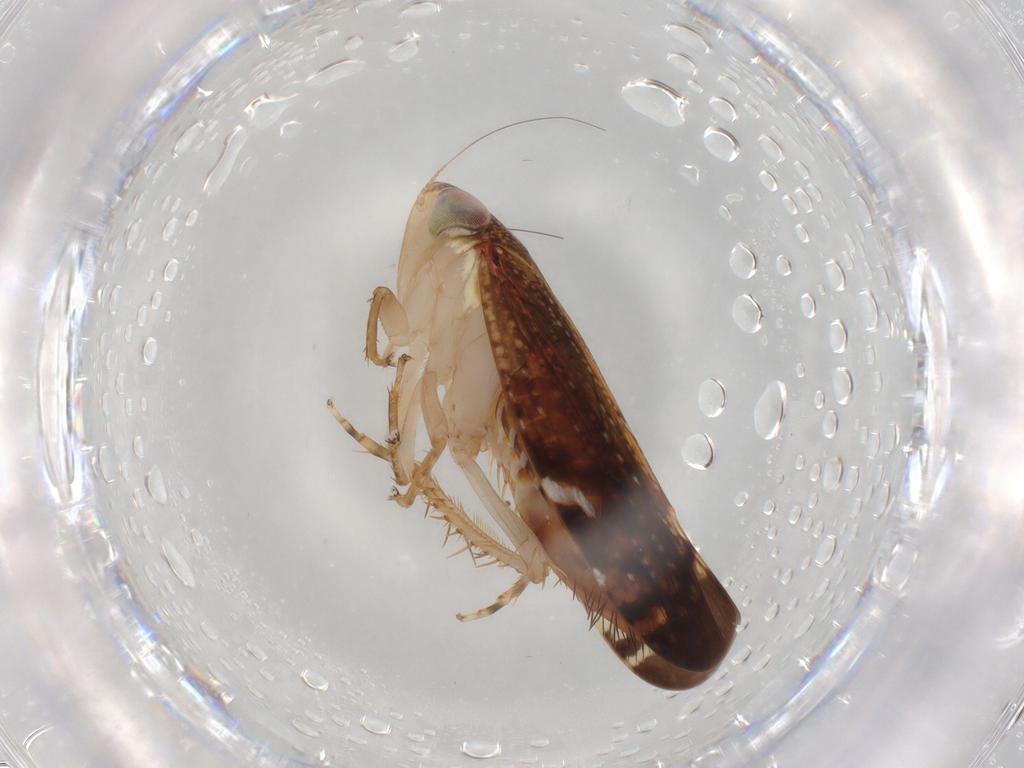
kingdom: Animalia
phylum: Arthropoda
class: Insecta
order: Hemiptera
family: Cicadellidae
